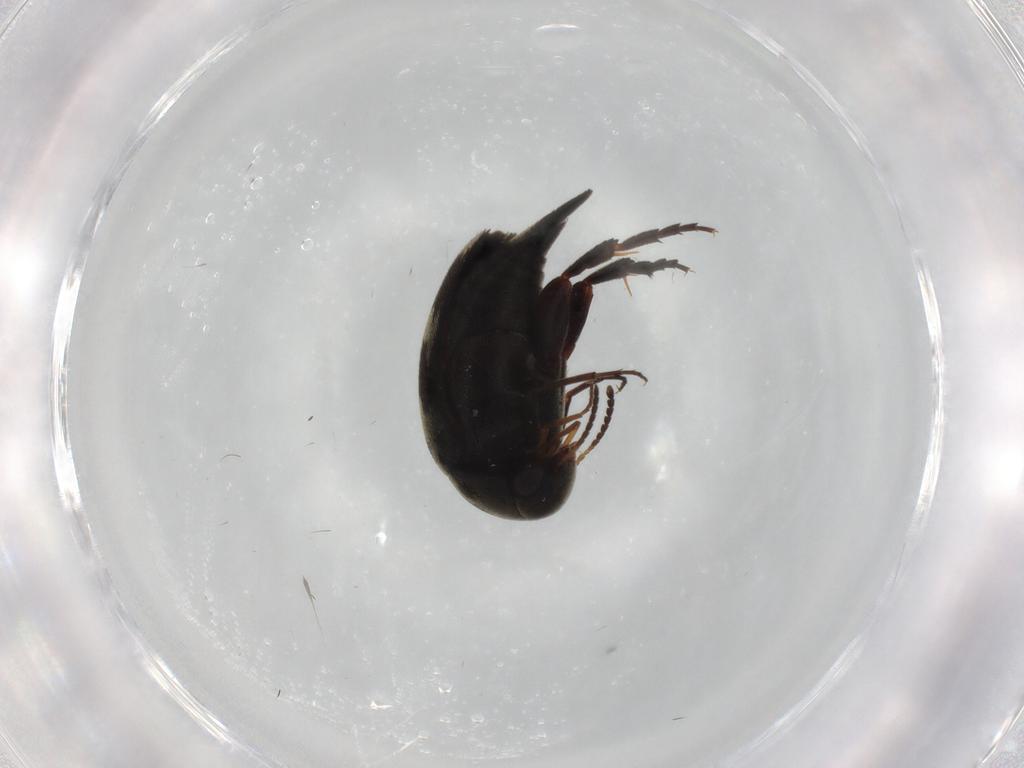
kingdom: Animalia
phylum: Arthropoda
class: Insecta
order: Coleoptera
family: Mordellidae
